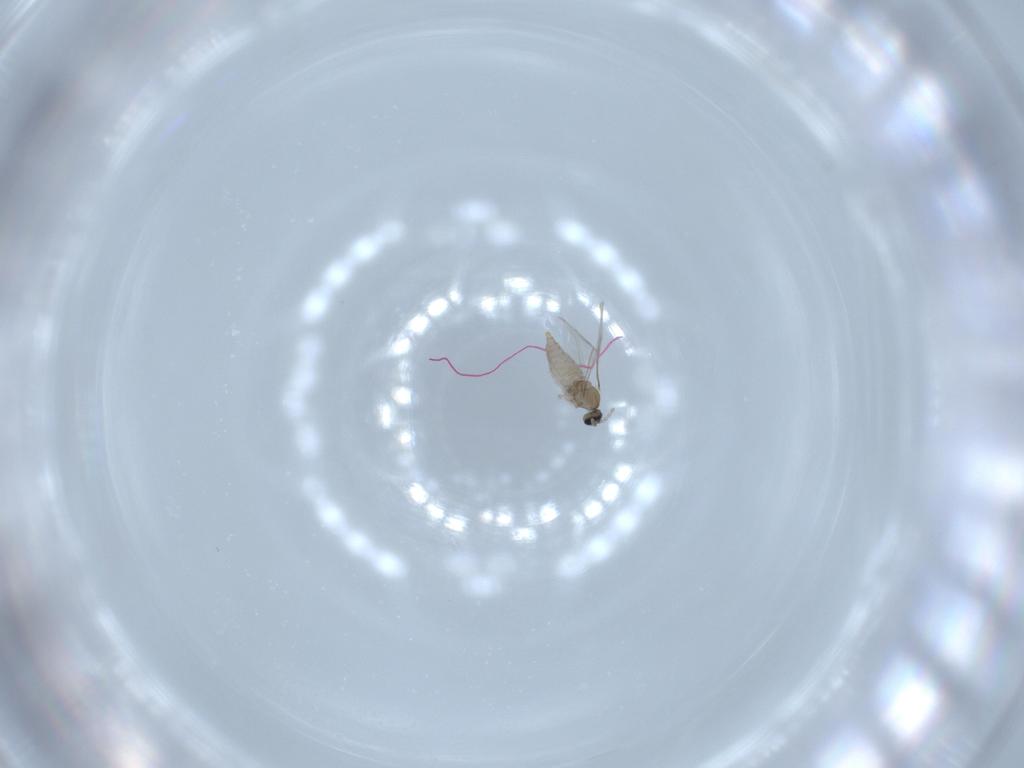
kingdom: Animalia
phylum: Arthropoda
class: Insecta
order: Diptera
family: Cecidomyiidae
